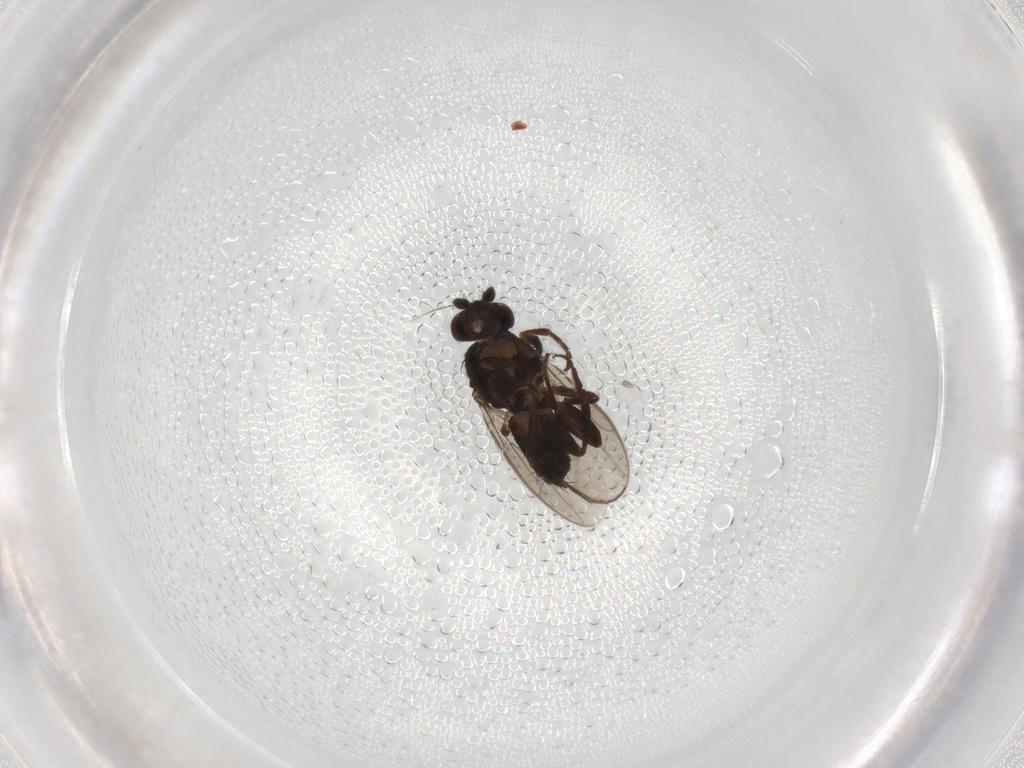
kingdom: Animalia
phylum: Arthropoda
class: Insecta
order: Diptera
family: Sphaeroceridae
